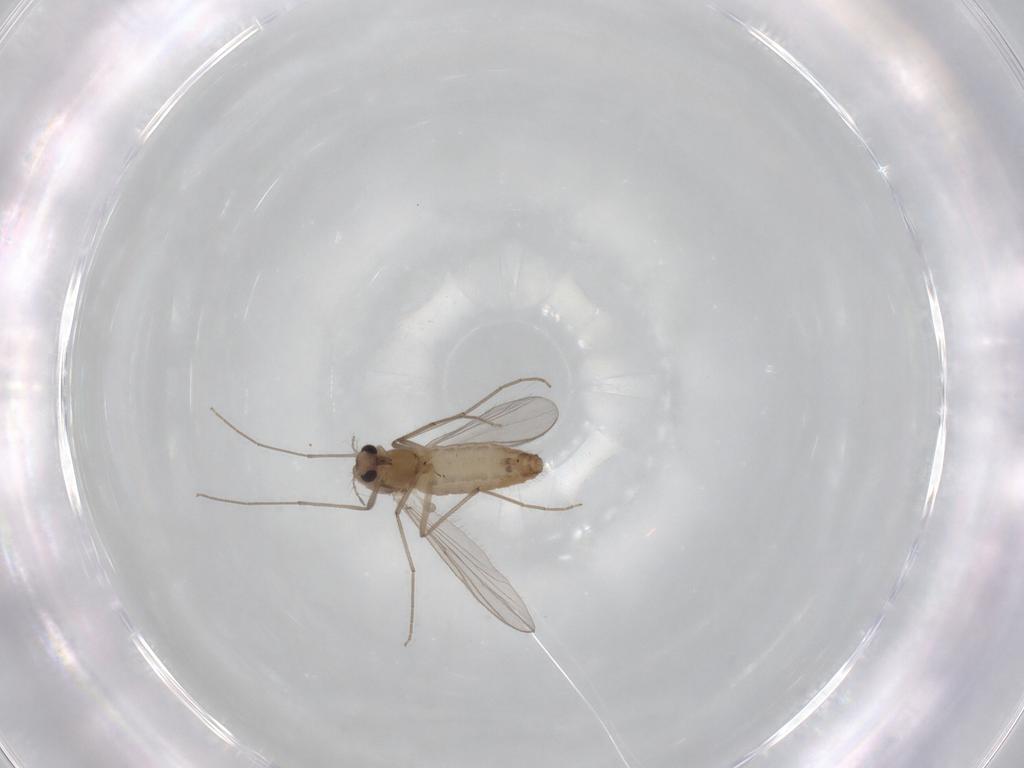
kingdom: Animalia
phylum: Arthropoda
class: Insecta
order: Diptera
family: Chironomidae
